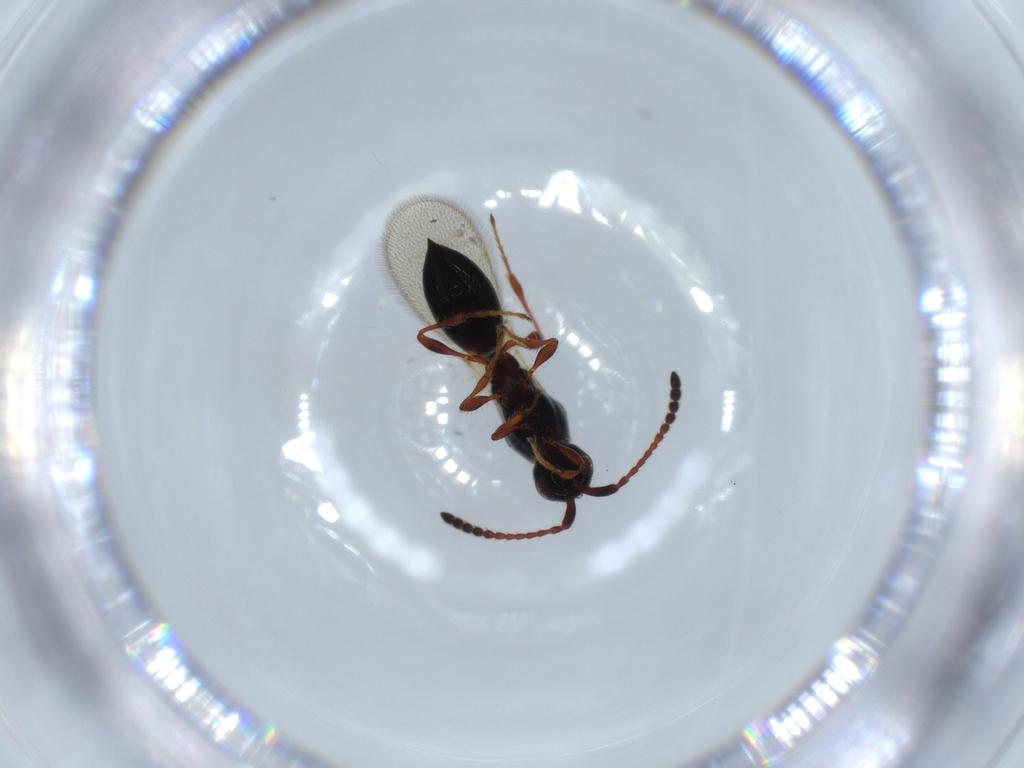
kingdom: Animalia
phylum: Arthropoda
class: Insecta
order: Hymenoptera
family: Diapriidae
